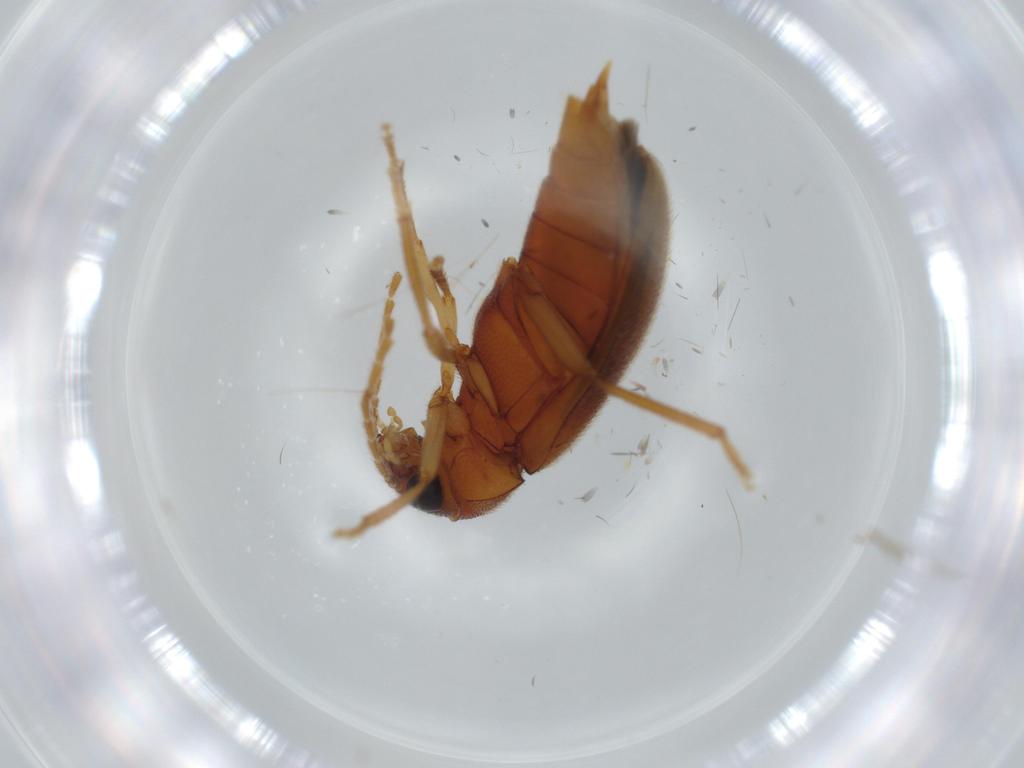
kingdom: Animalia
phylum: Arthropoda
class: Insecta
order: Coleoptera
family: Ptilodactylidae
